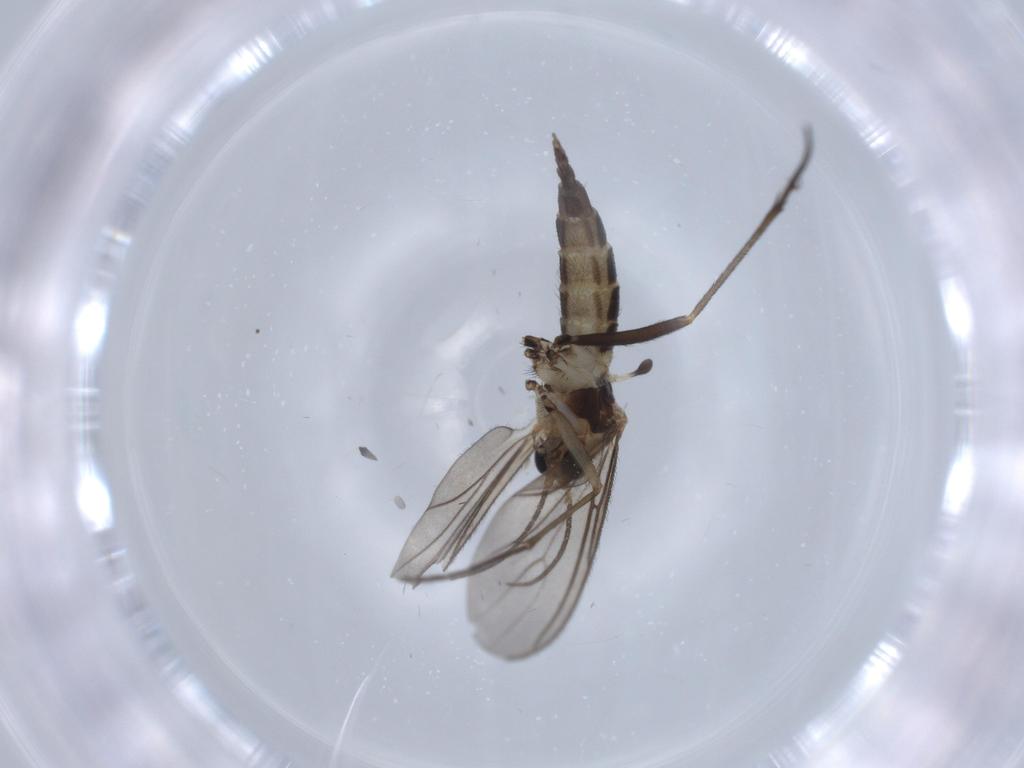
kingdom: Animalia
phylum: Arthropoda
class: Insecta
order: Diptera
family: Sciaridae
